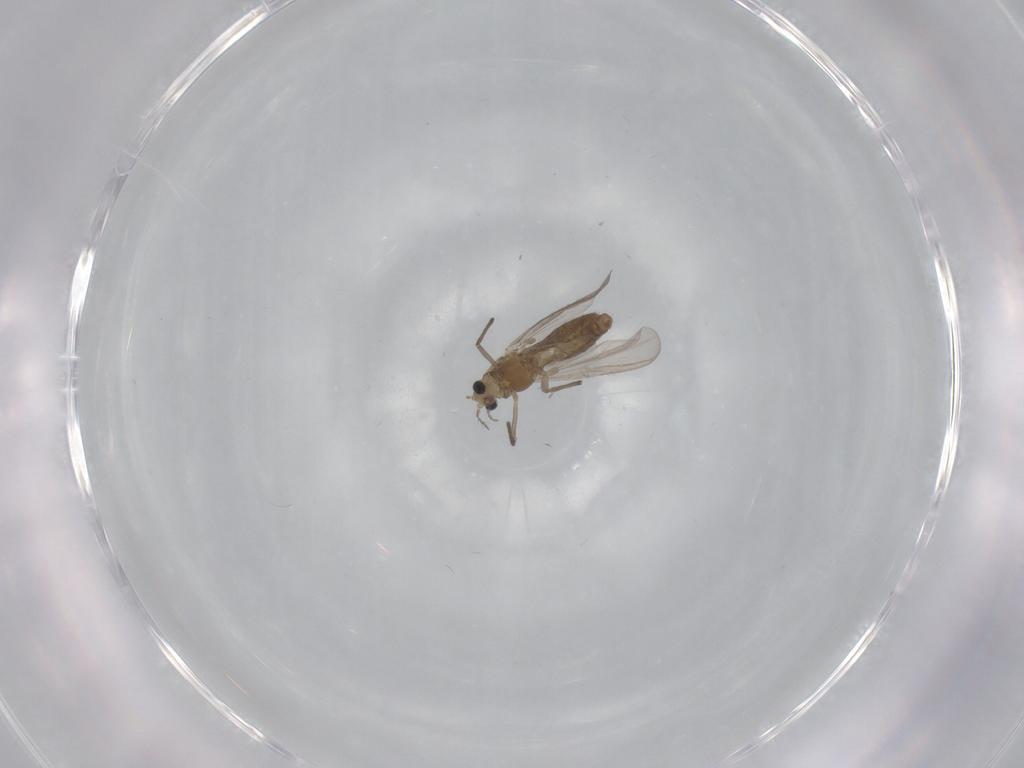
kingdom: Animalia
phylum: Arthropoda
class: Insecta
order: Diptera
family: Chironomidae
